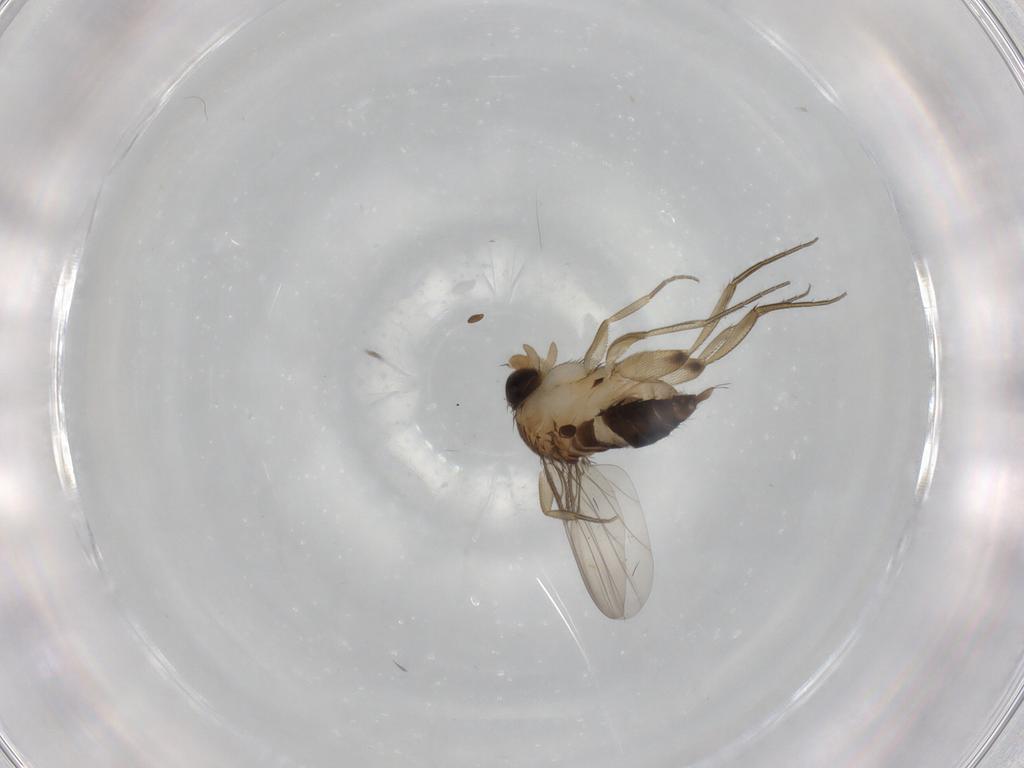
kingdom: Animalia
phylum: Arthropoda
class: Insecta
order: Diptera
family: Phoridae
